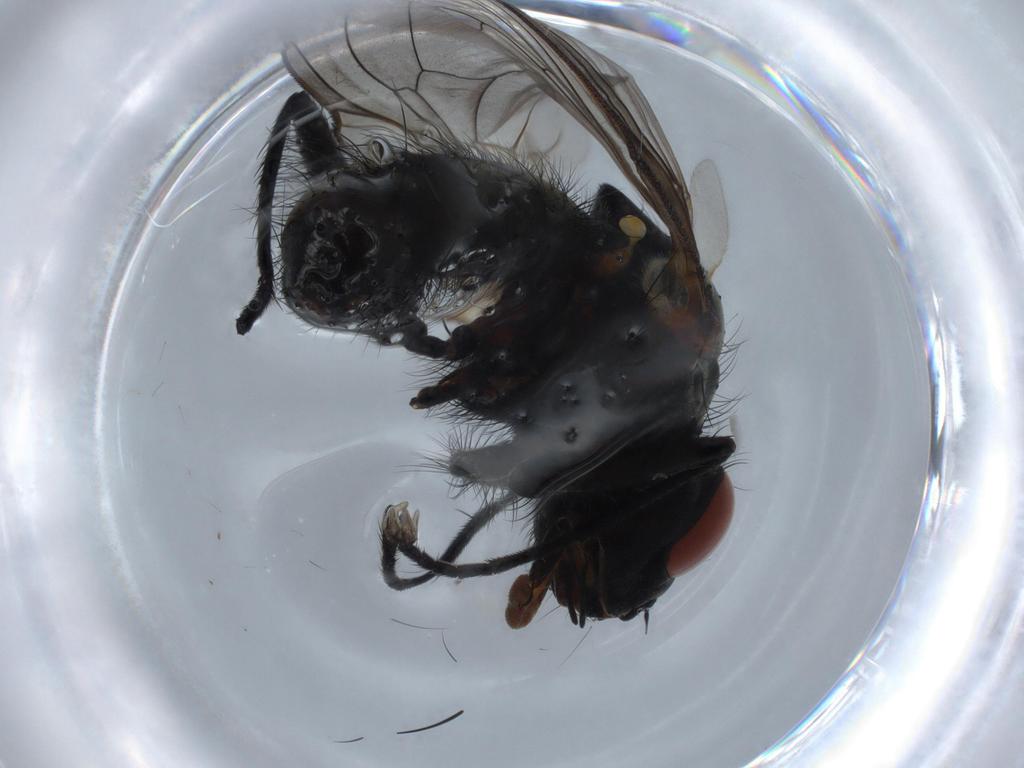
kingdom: Animalia
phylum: Arthropoda
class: Insecta
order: Diptera
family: Anthomyiidae
